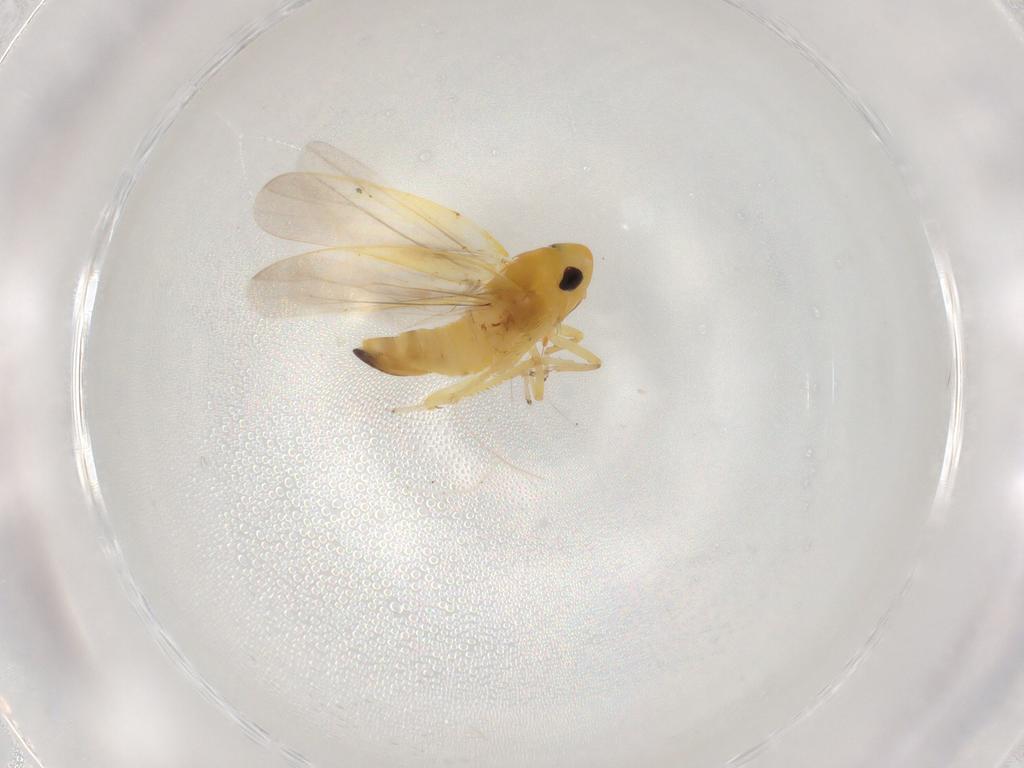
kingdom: Animalia
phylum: Arthropoda
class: Insecta
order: Hemiptera
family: Cicadellidae
